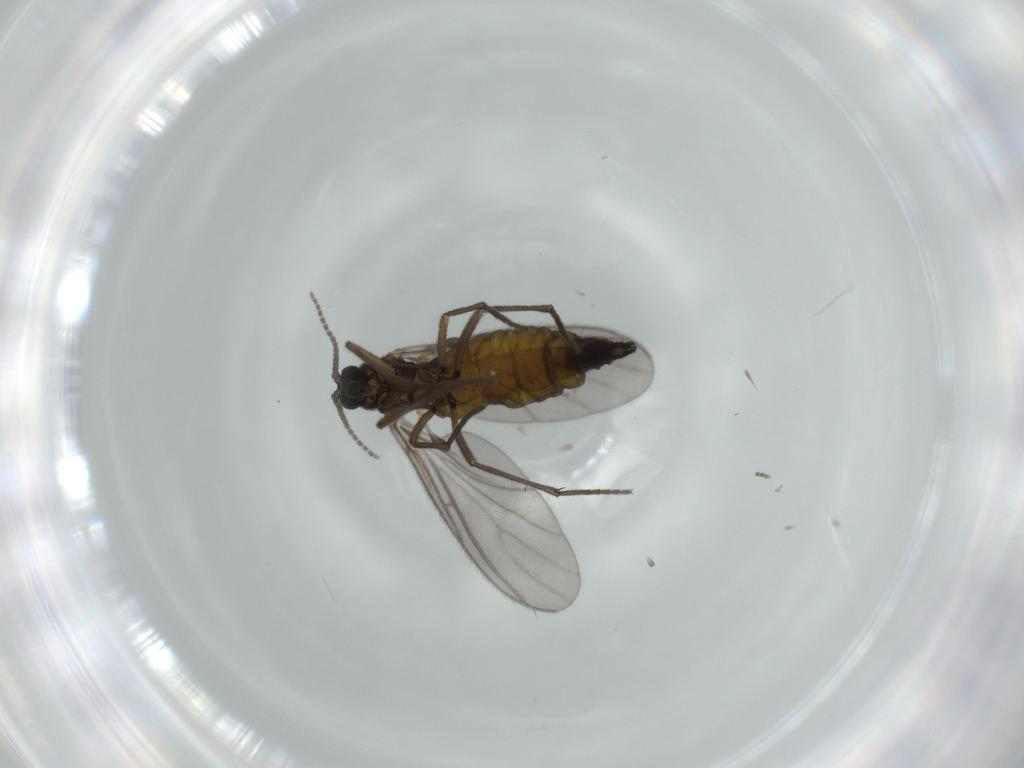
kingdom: Animalia
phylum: Arthropoda
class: Insecta
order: Diptera
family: Sciaridae
